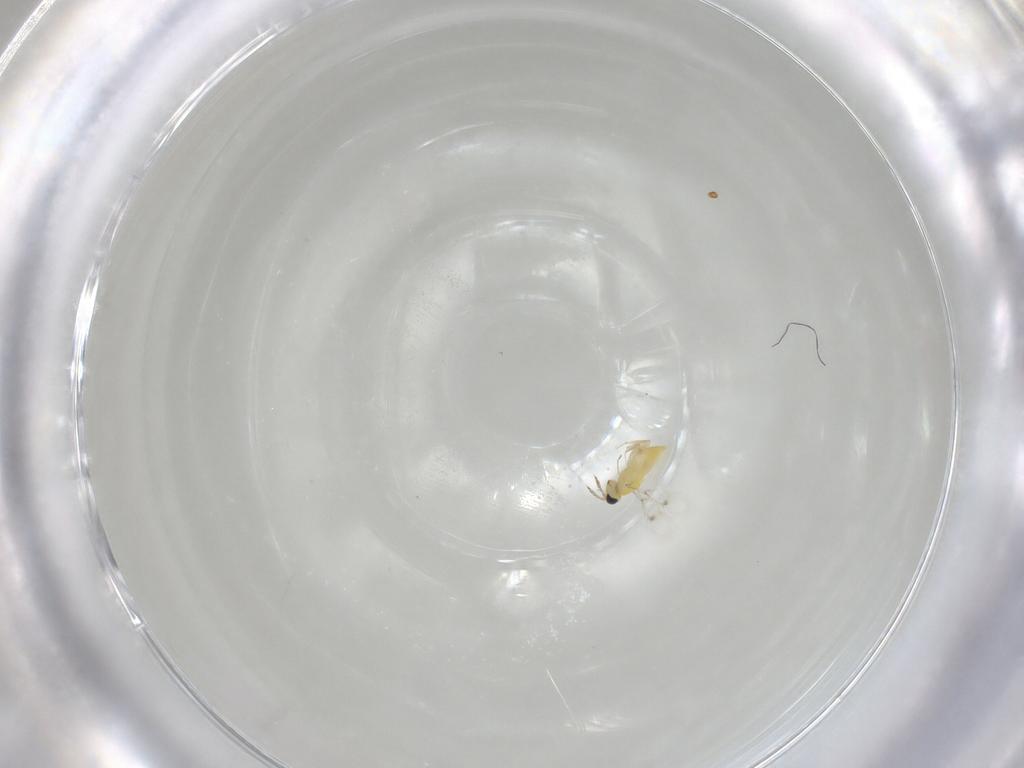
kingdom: Animalia
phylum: Arthropoda
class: Insecta
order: Hymenoptera
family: Trichogrammatidae
